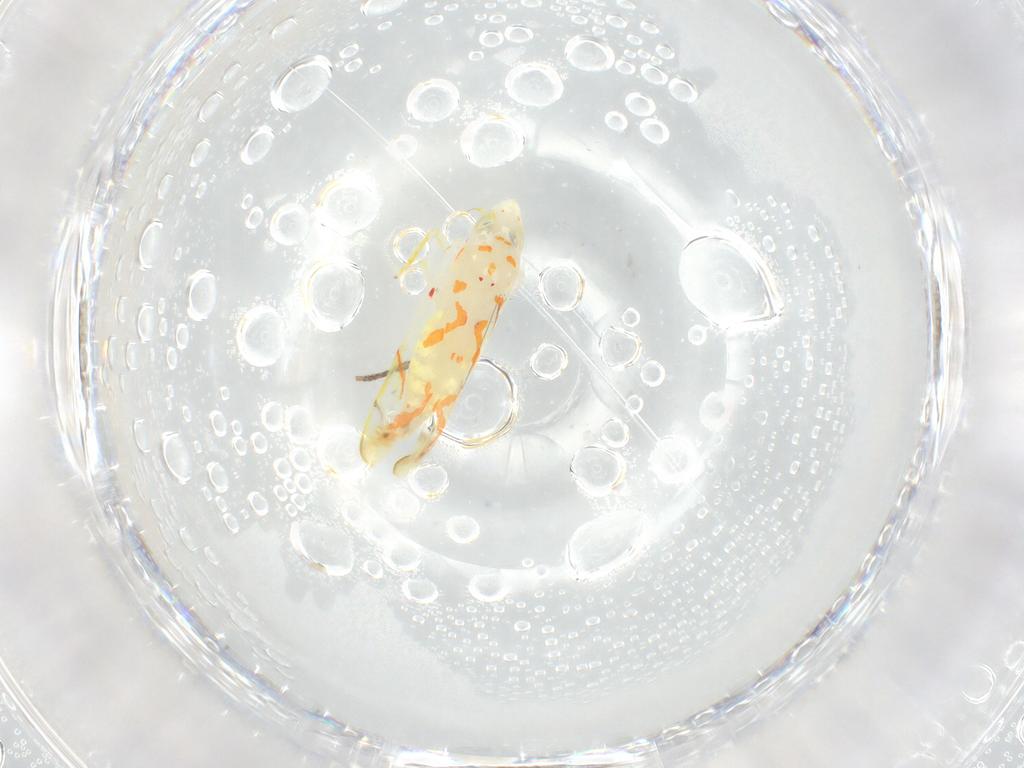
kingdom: Animalia
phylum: Arthropoda
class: Insecta
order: Hemiptera
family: Cicadellidae
